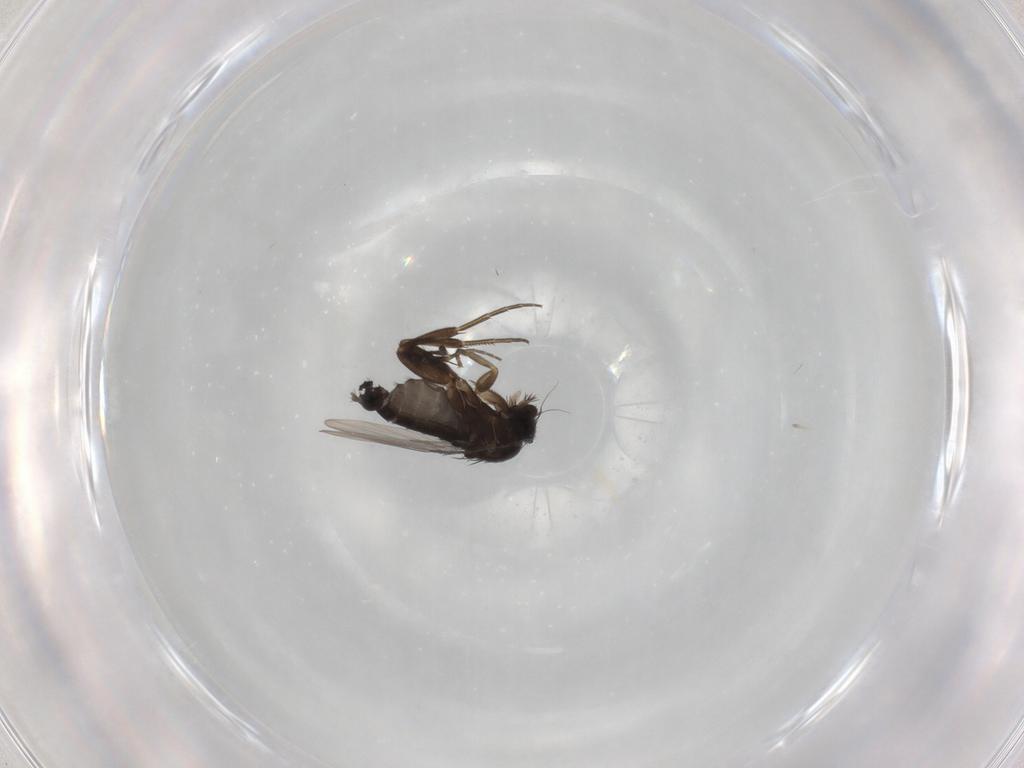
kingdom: Animalia
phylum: Arthropoda
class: Insecta
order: Diptera
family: Phoridae
